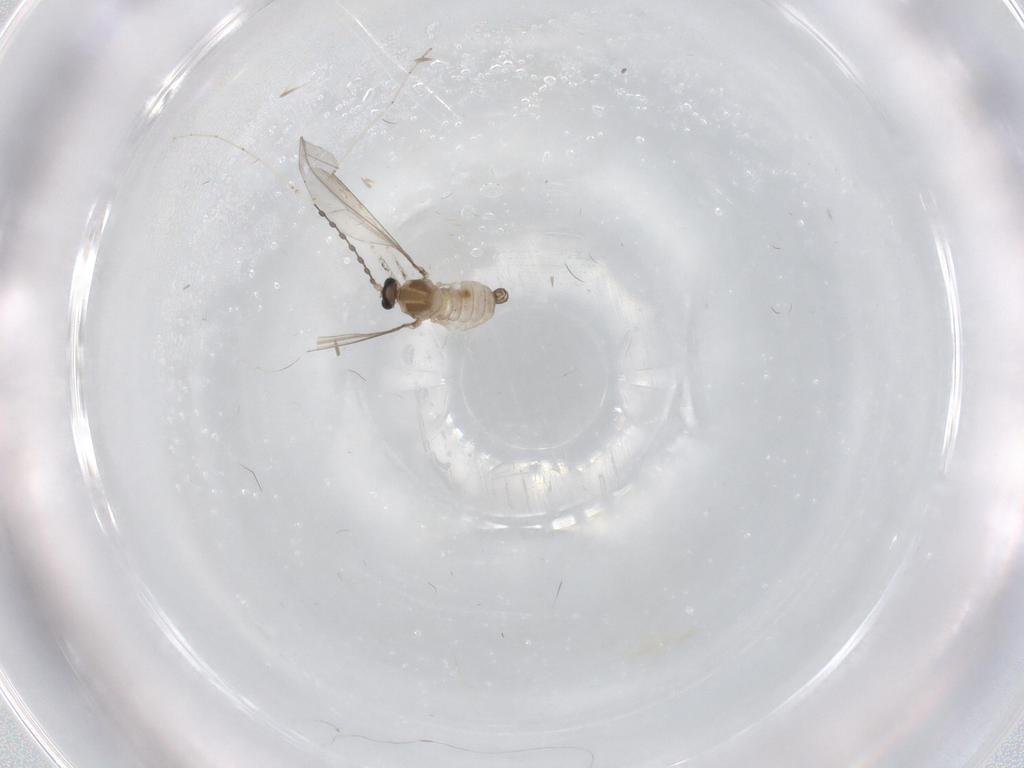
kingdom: Animalia
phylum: Arthropoda
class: Insecta
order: Diptera
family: Cecidomyiidae
